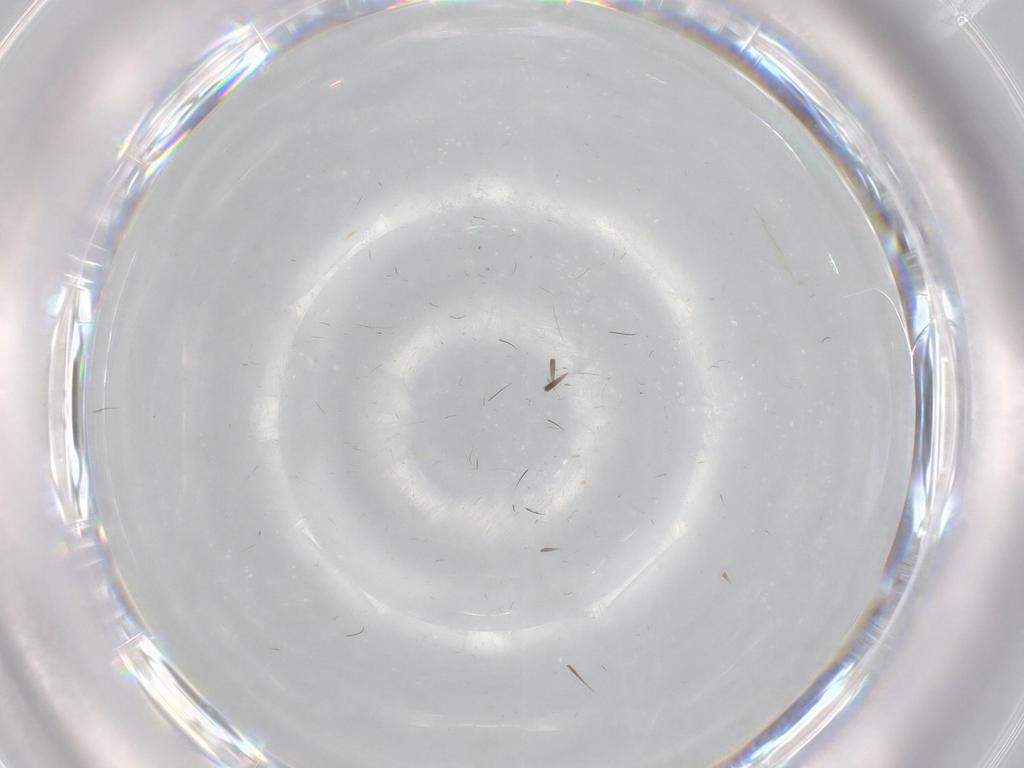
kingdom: Animalia
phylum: Arthropoda
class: Insecta
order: Diptera
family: Dolichopodidae
